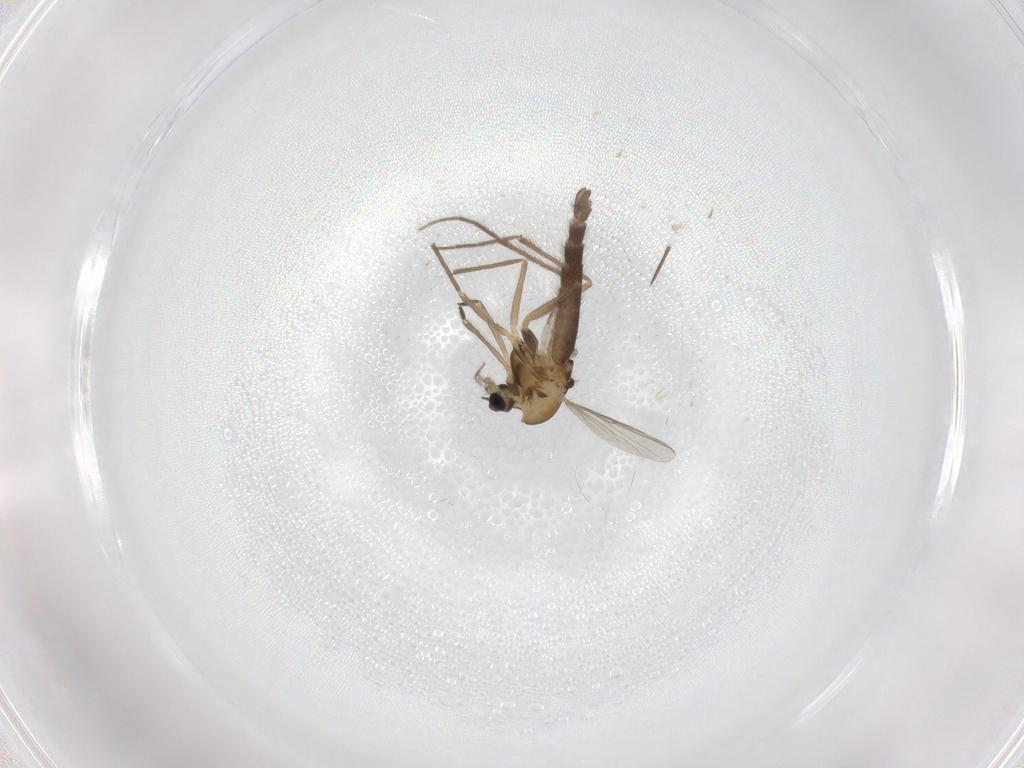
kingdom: Animalia
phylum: Arthropoda
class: Insecta
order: Diptera
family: Chironomidae
